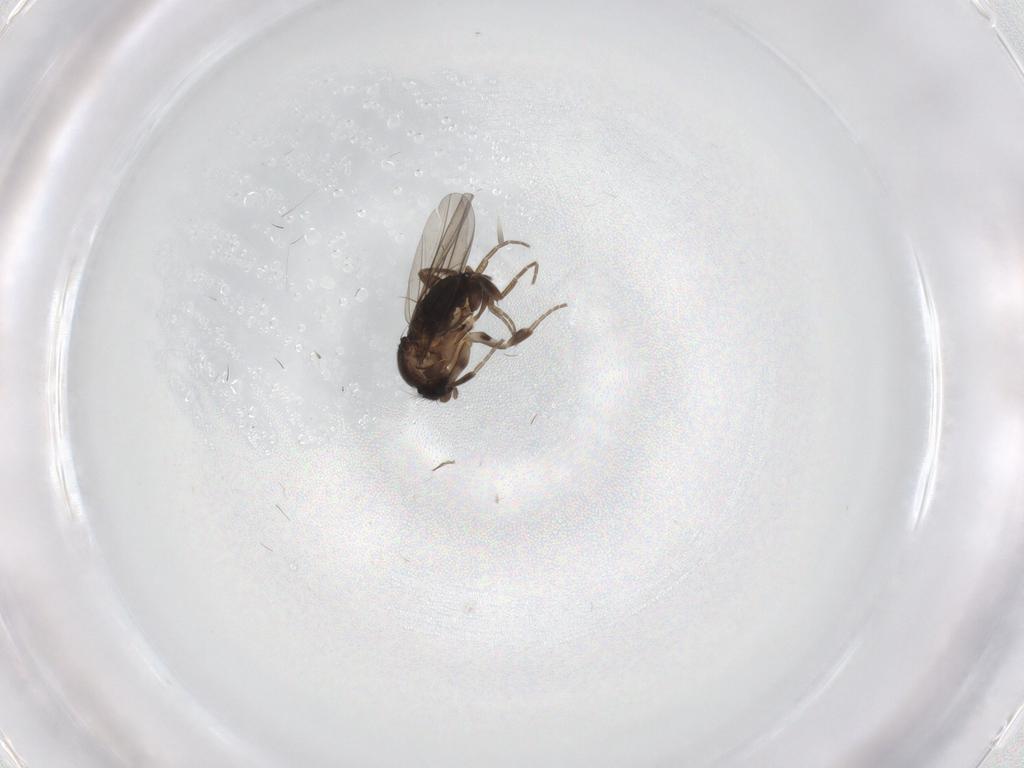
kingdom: Animalia
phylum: Arthropoda
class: Insecta
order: Diptera
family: Phoridae
